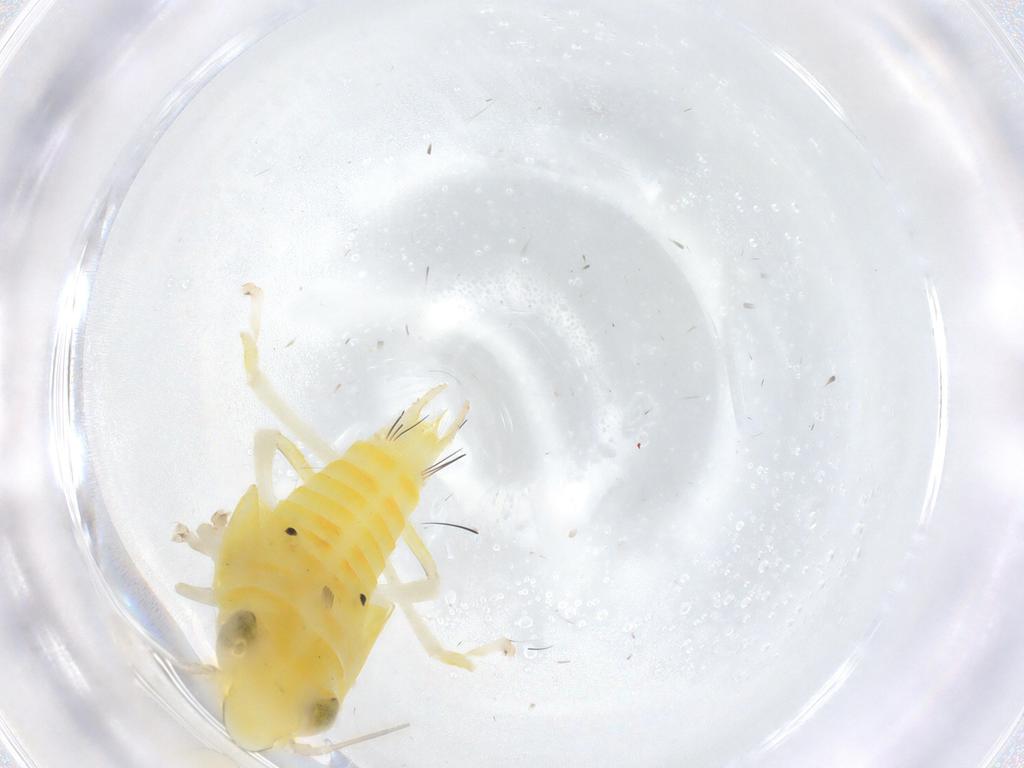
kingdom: Animalia
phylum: Arthropoda
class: Insecta
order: Hemiptera
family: Cicadellidae
